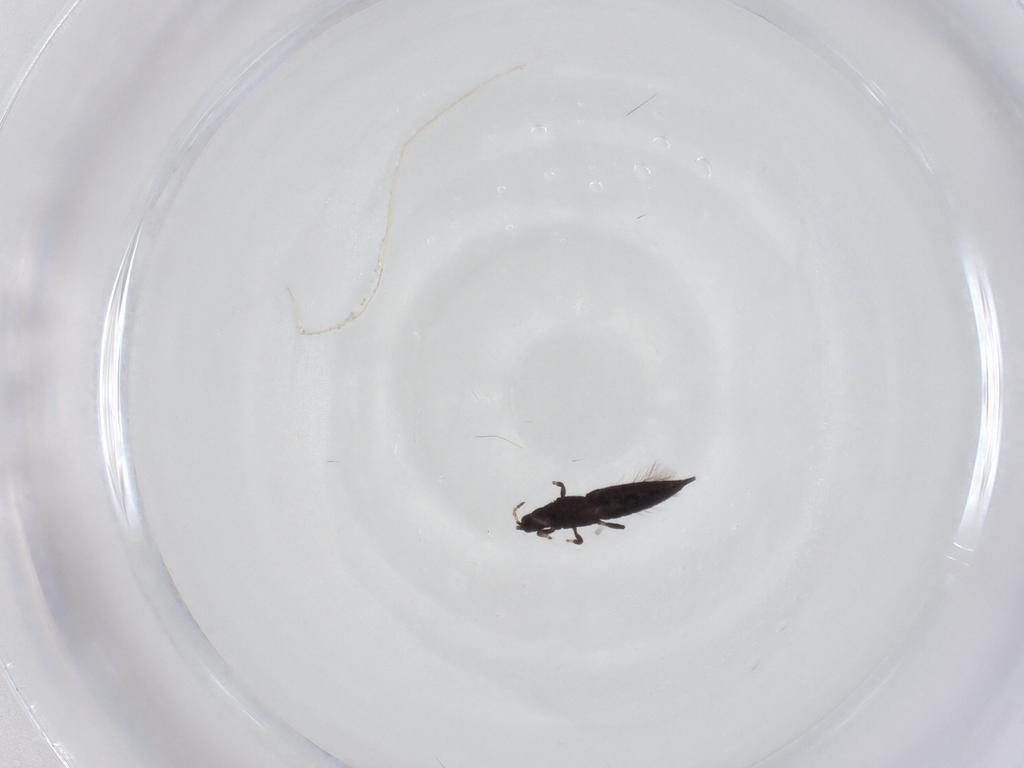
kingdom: Animalia
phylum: Arthropoda
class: Insecta
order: Thysanoptera
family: Phlaeothripidae
